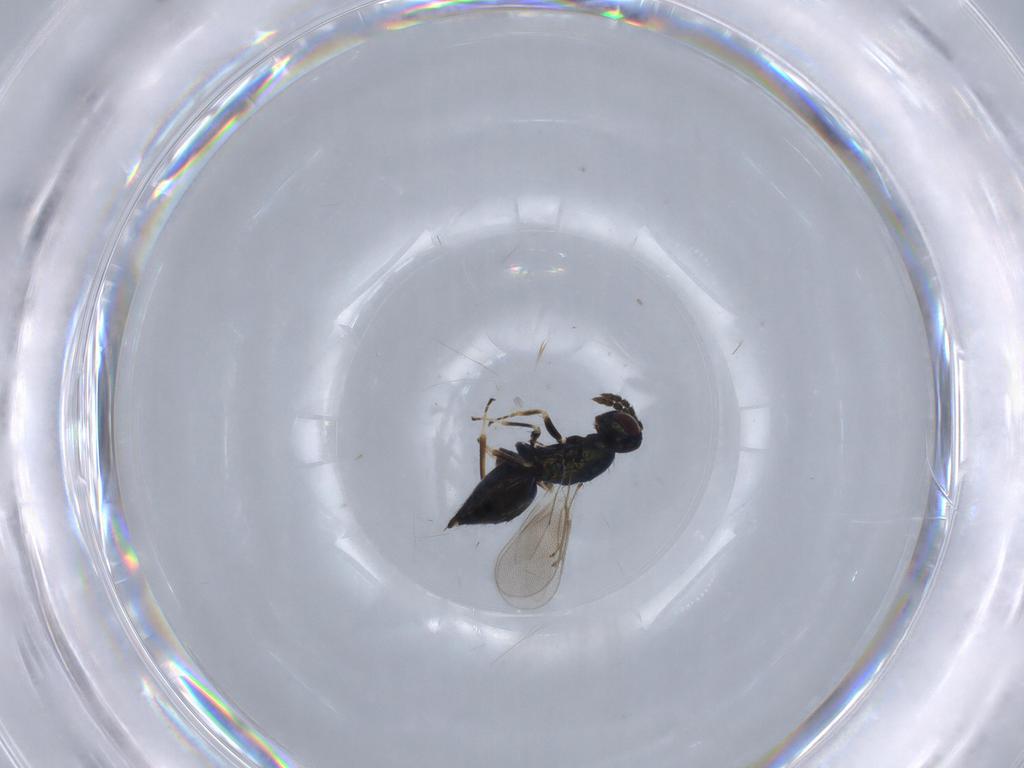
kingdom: Animalia
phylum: Arthropoda
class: Insecta
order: Hymenoptera
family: Eulophidae
